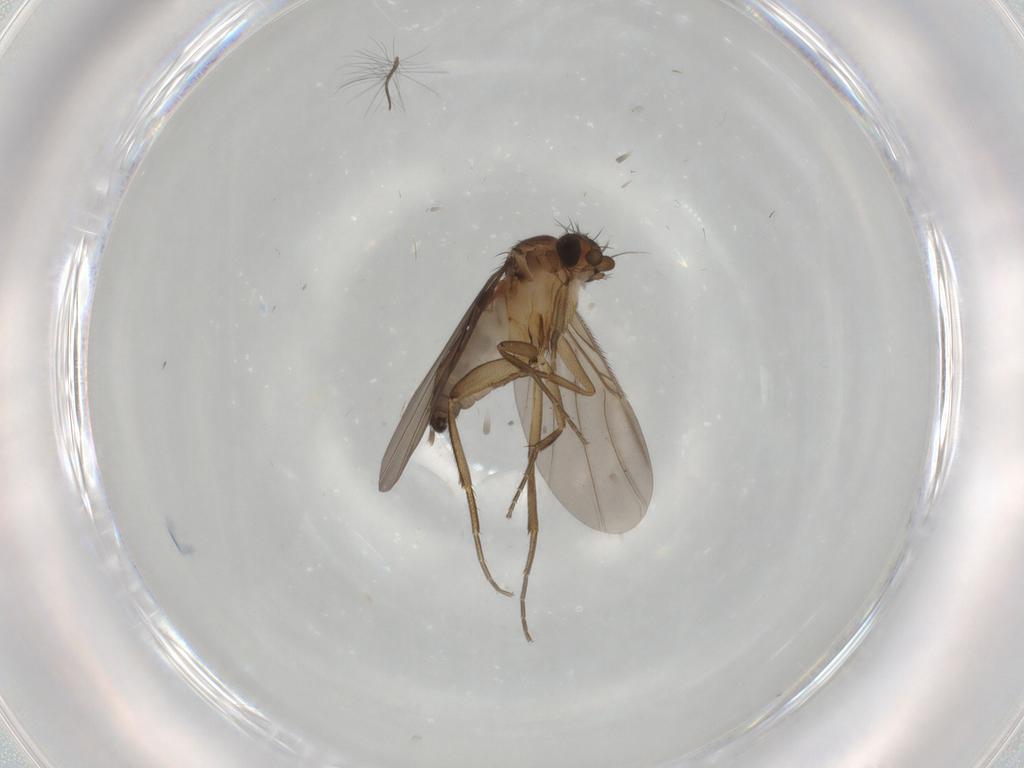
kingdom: Animalia
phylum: Arthropoda
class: Insecta
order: Diptera
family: Phoridae
